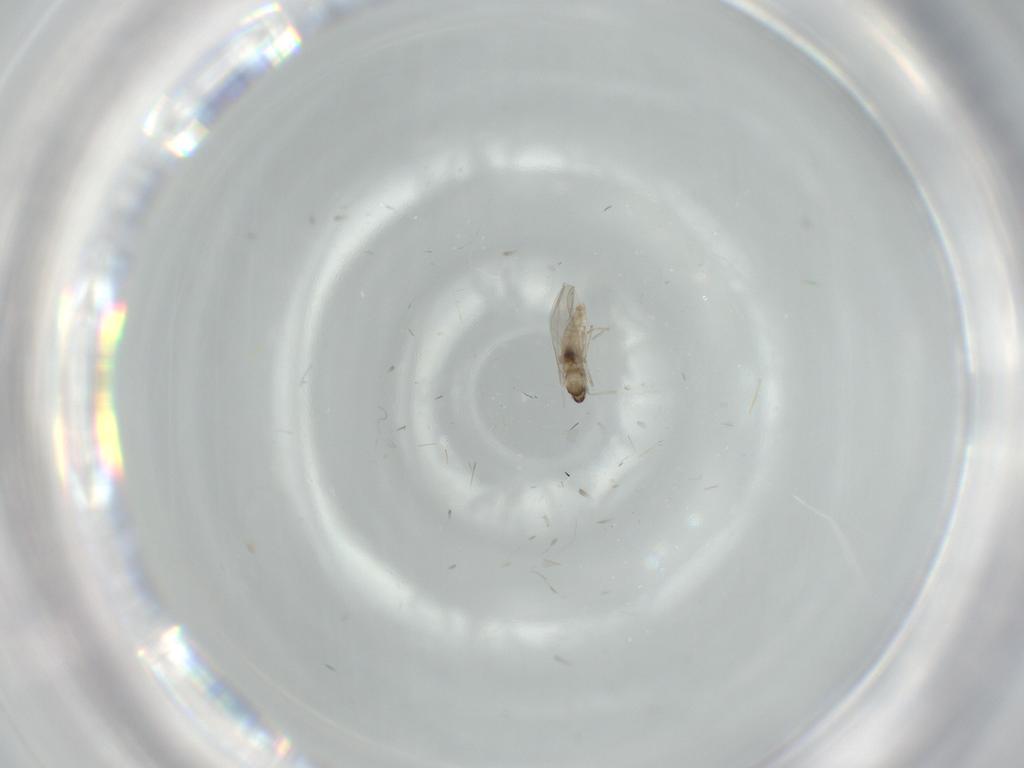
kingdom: Animalia
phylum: Arthropoda
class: Insecta
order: Diptera
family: Cecidomyiidae
